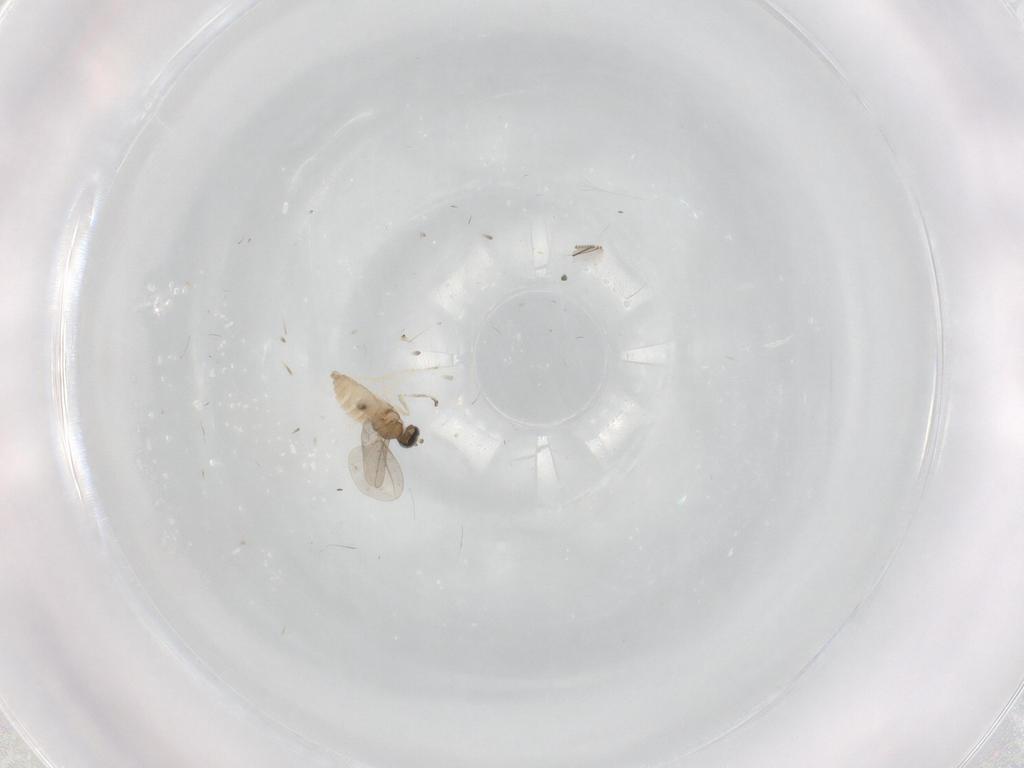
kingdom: Animalia
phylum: Arthropoda
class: Insecta
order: Diptera
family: Cecidomyiidae
